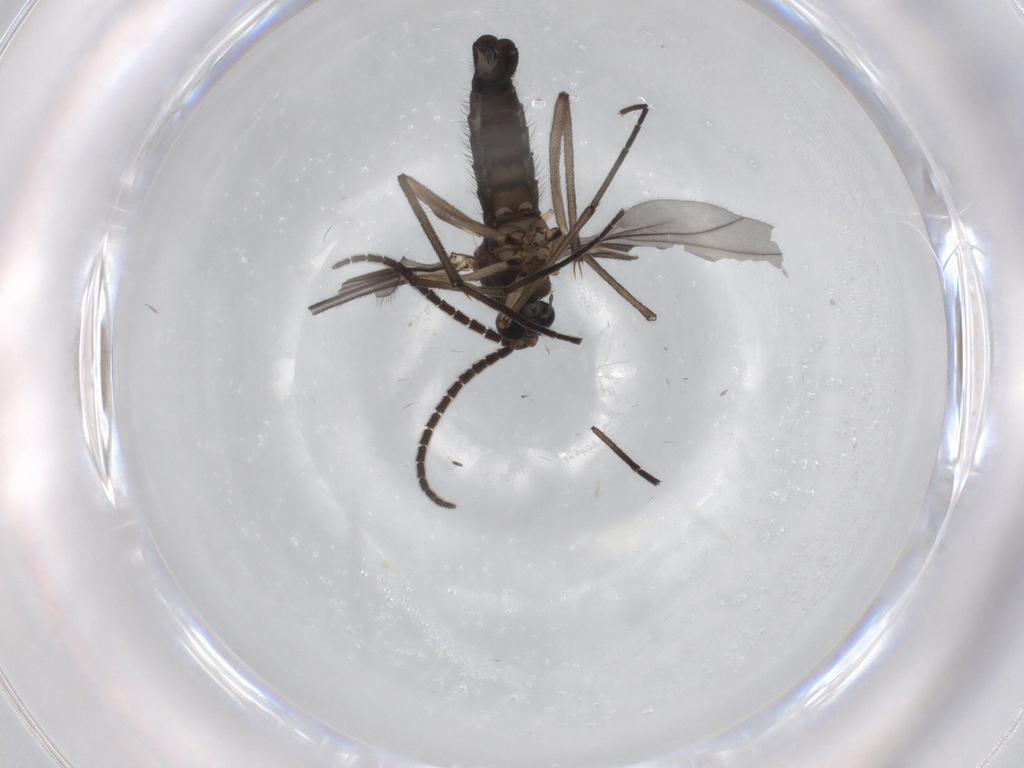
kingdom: Animalia
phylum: Arthropoda
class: Insecta
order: Diptera
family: Sciaridae
